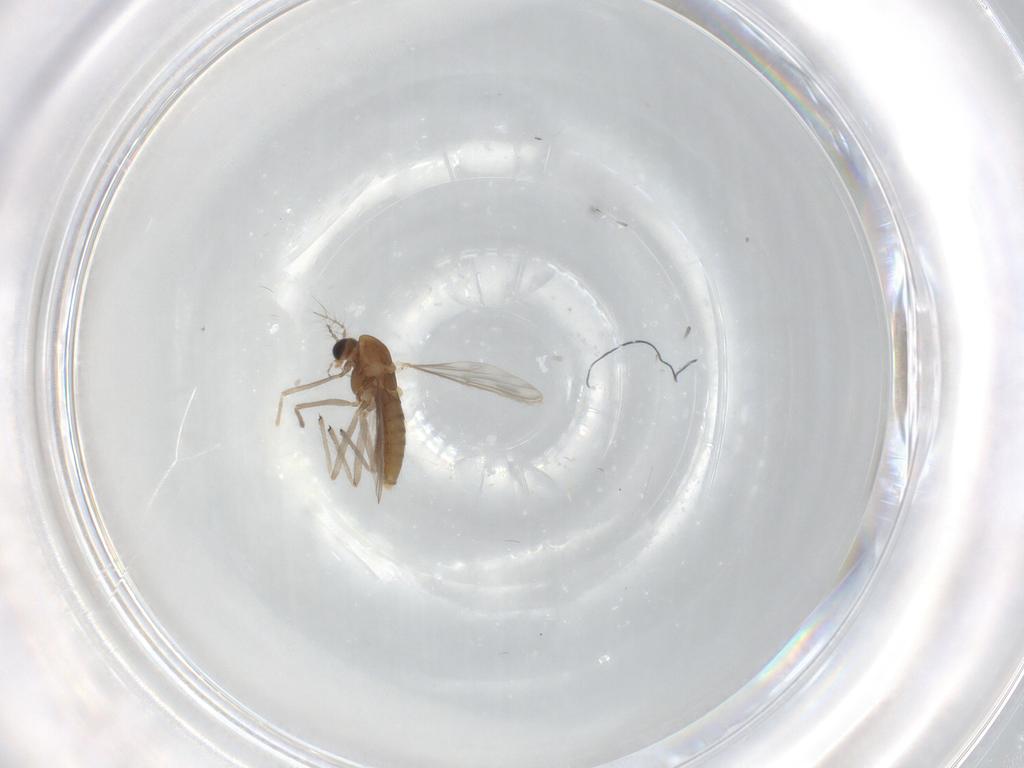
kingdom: Animalia
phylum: Arthropoda
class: Insecta
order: Diptera
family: Chironomidae
